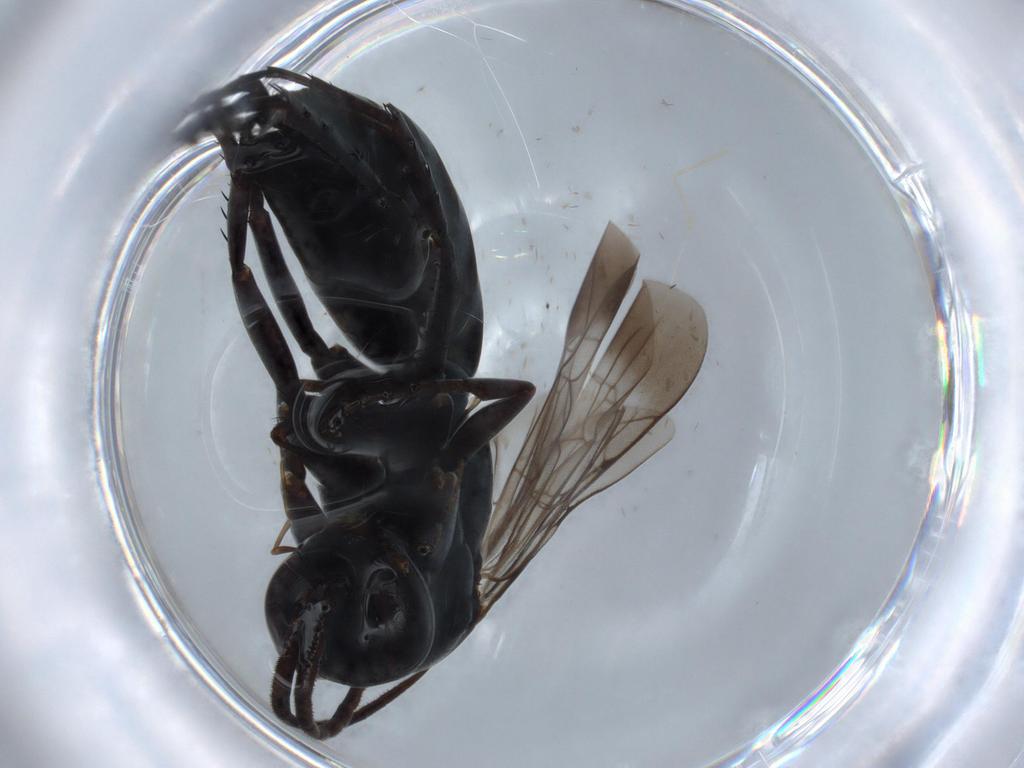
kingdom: Animalia
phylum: Arthropoda
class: Insecta
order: Hymenoptera
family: Pompilidae
